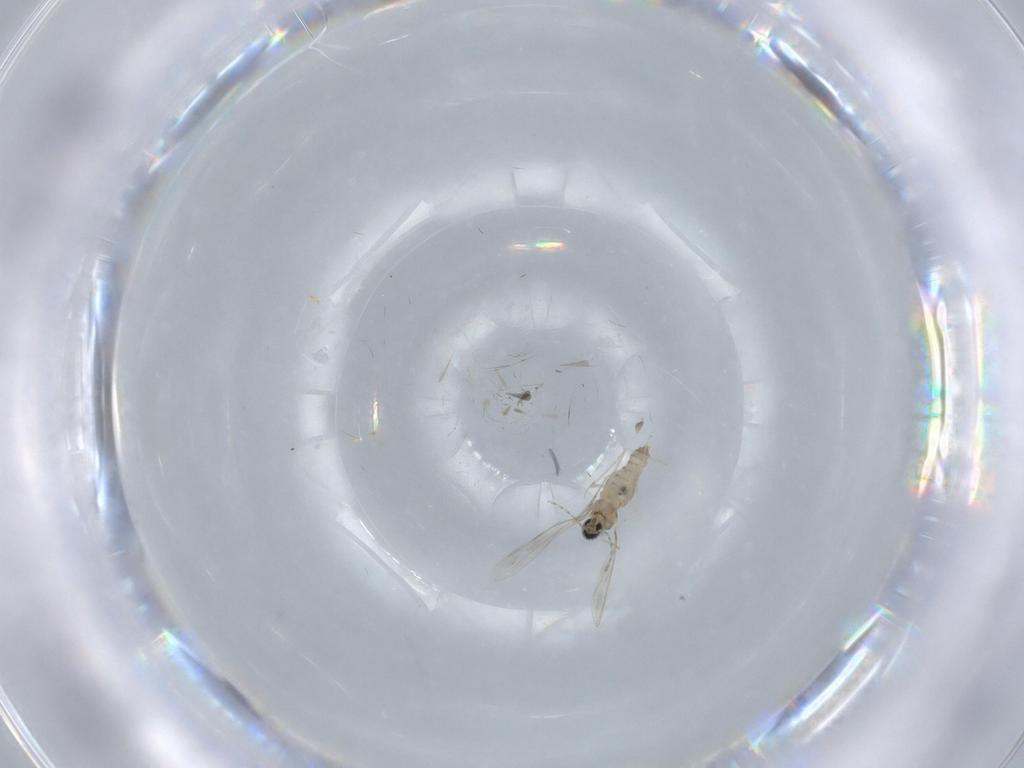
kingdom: Animalia
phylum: Arthropoda
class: Insecta
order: Diptera
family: Cecidomyiidae
